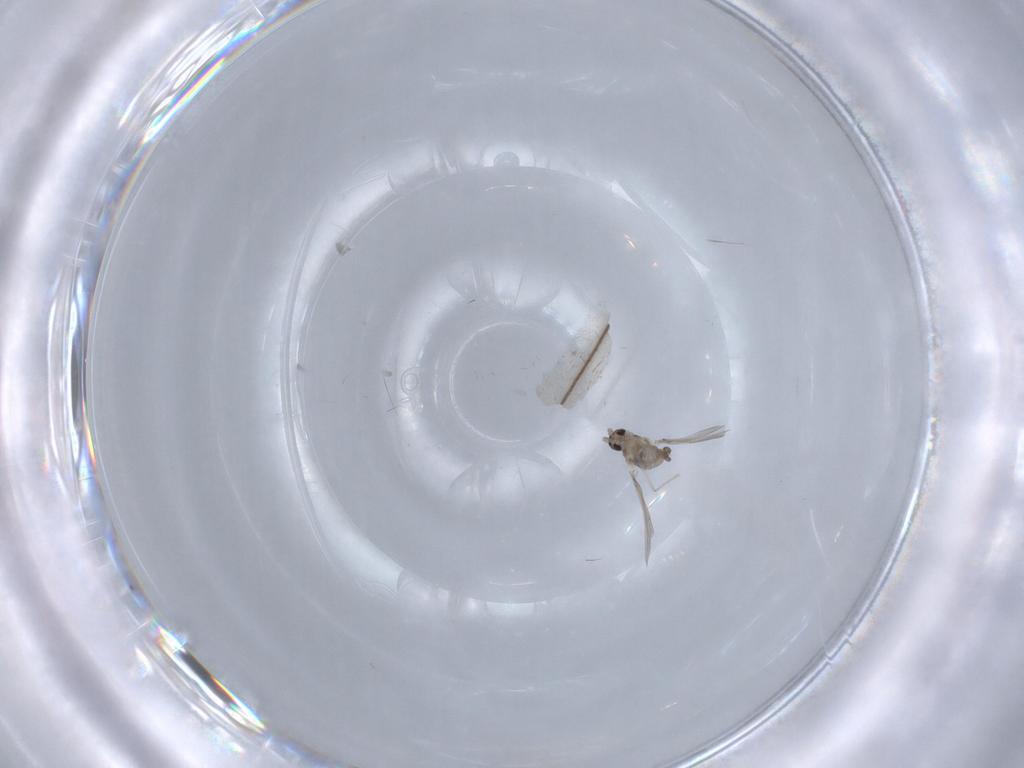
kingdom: Animalia
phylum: Arthropoda
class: Insecta
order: Diptera
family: Cecidomyiidae
